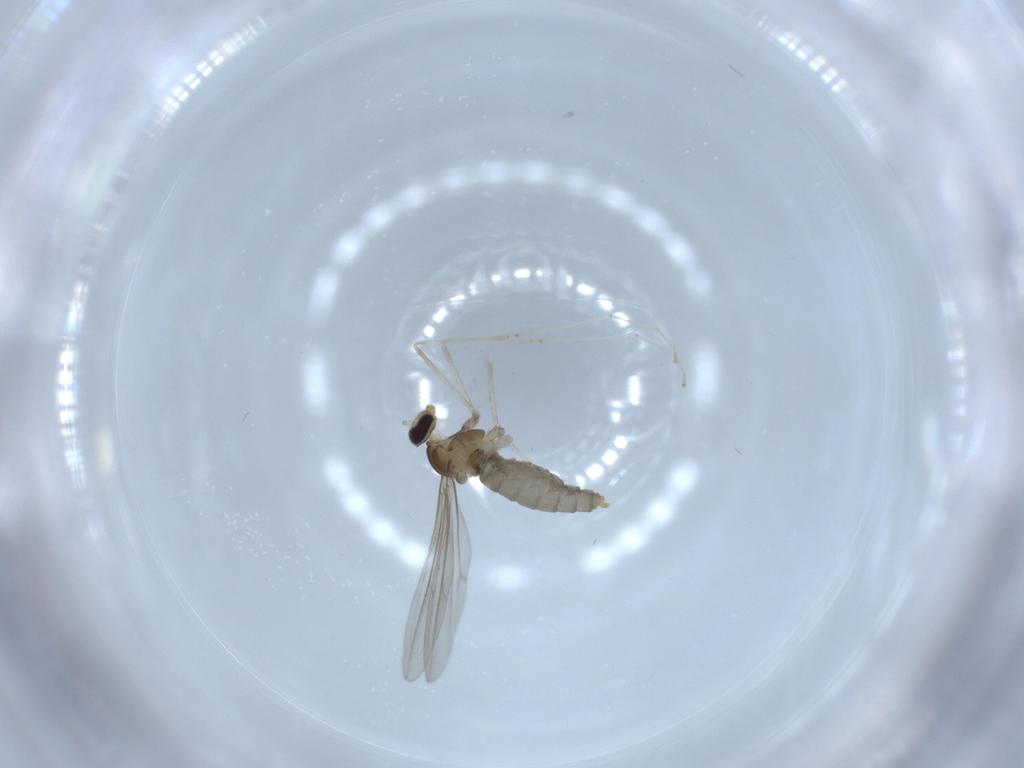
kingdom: Animalia
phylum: Arthropoda
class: Insecta
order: Diptera
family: Cecidomyiidae
